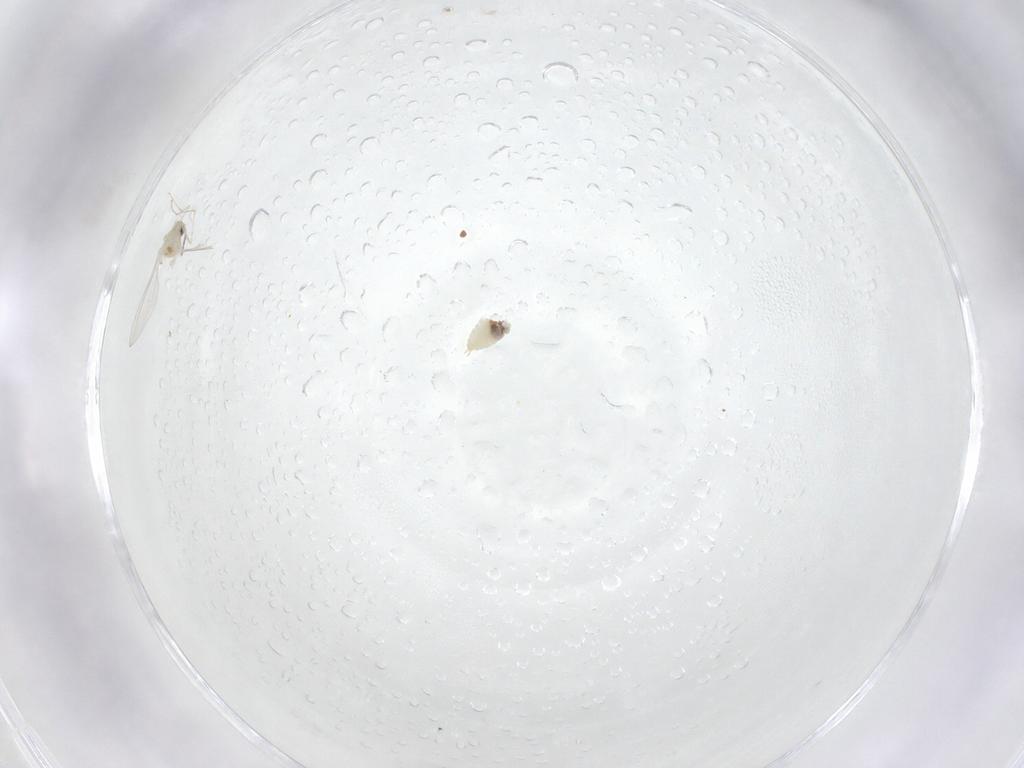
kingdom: Animalia
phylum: Arthropoda
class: Insecta
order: Diptera
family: Cecidomyiidae
